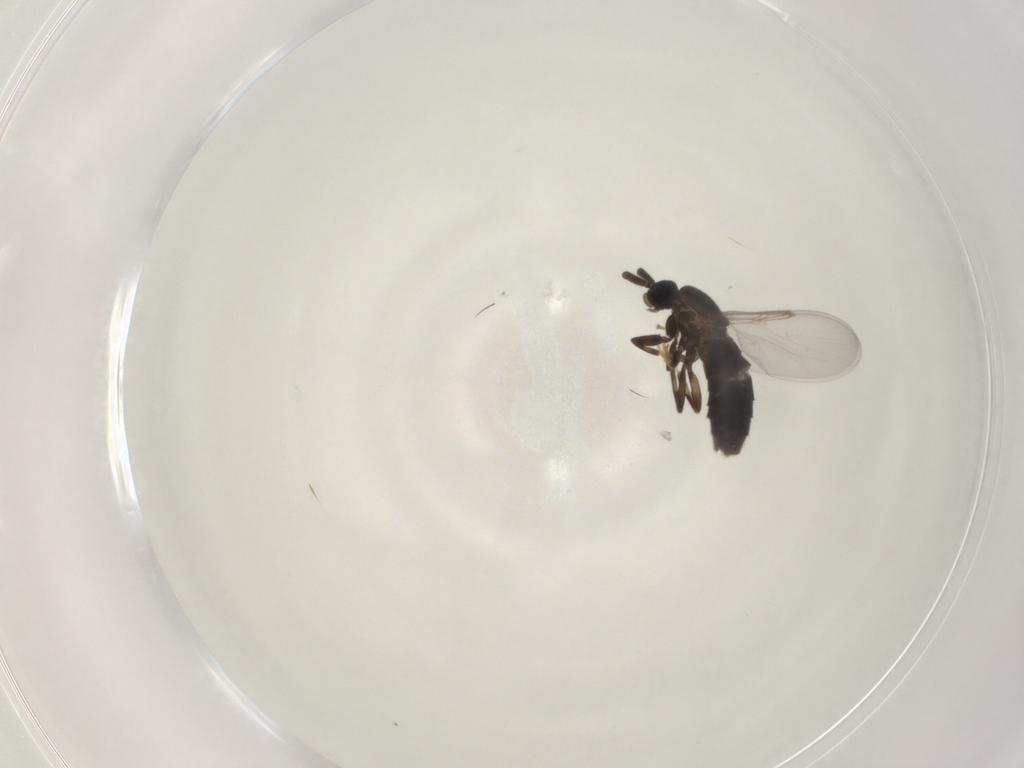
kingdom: Animalia
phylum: Arthropoda
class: Insecta
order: Diptera
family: Scatopsidae
